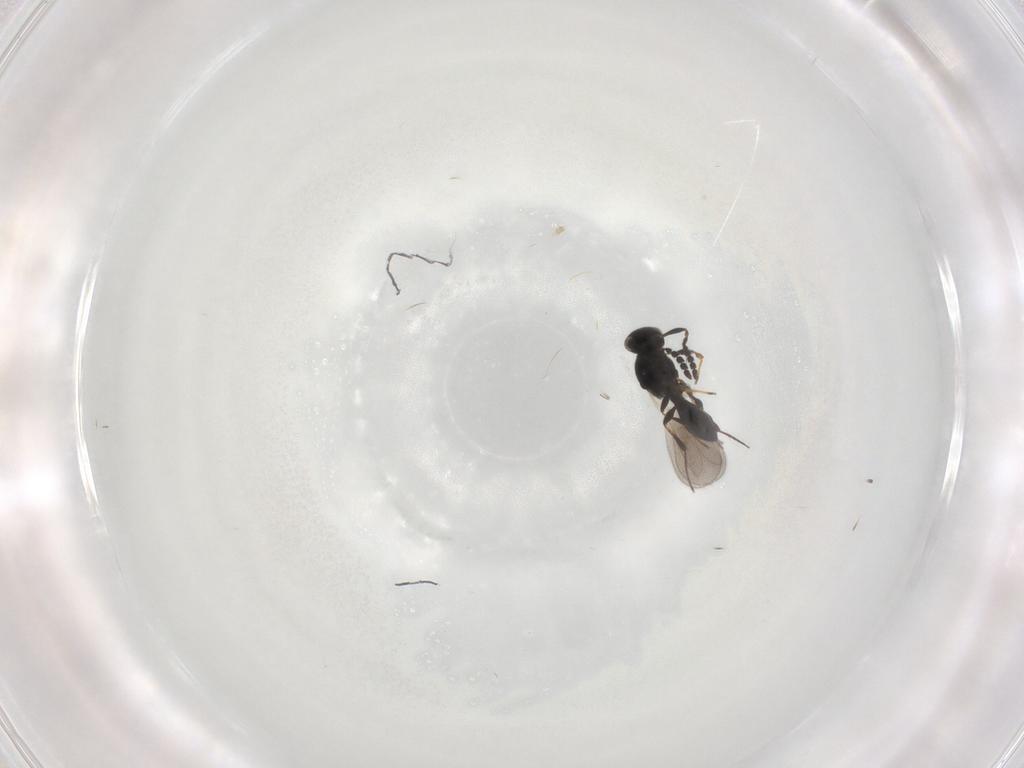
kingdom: Animalia
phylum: Arthropoda
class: Insecta
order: Hymenoptera
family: Platygastridae
